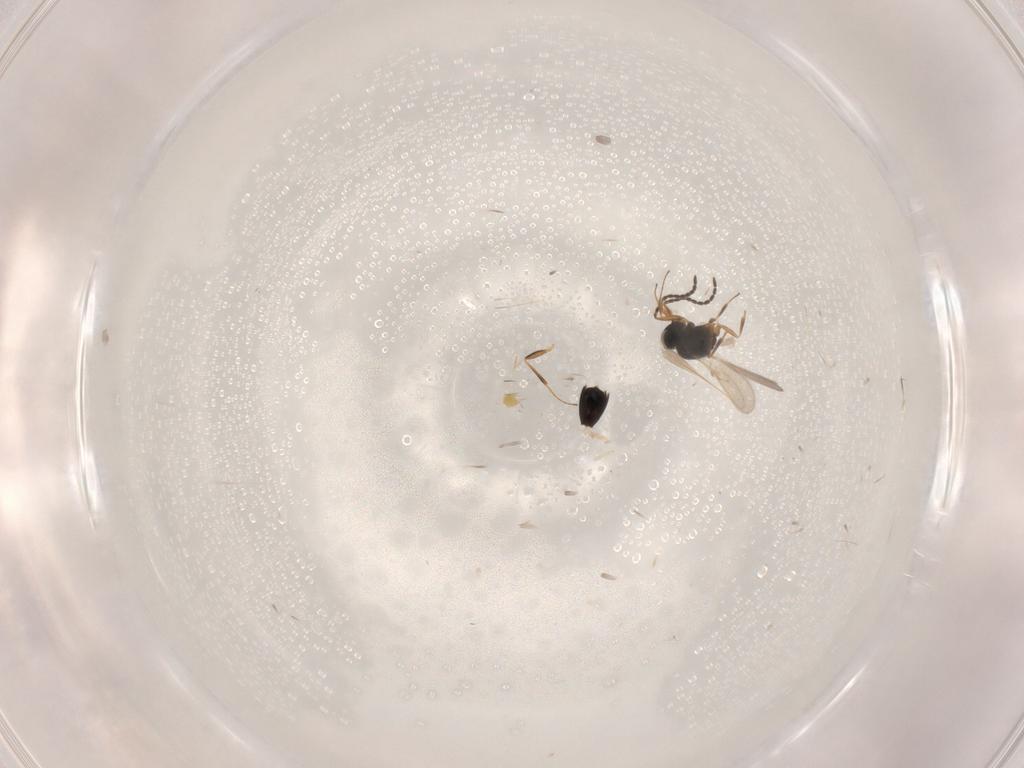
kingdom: Animalia
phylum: Arthropoda
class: Insecta
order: Hymenoptera
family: Scelionidae
